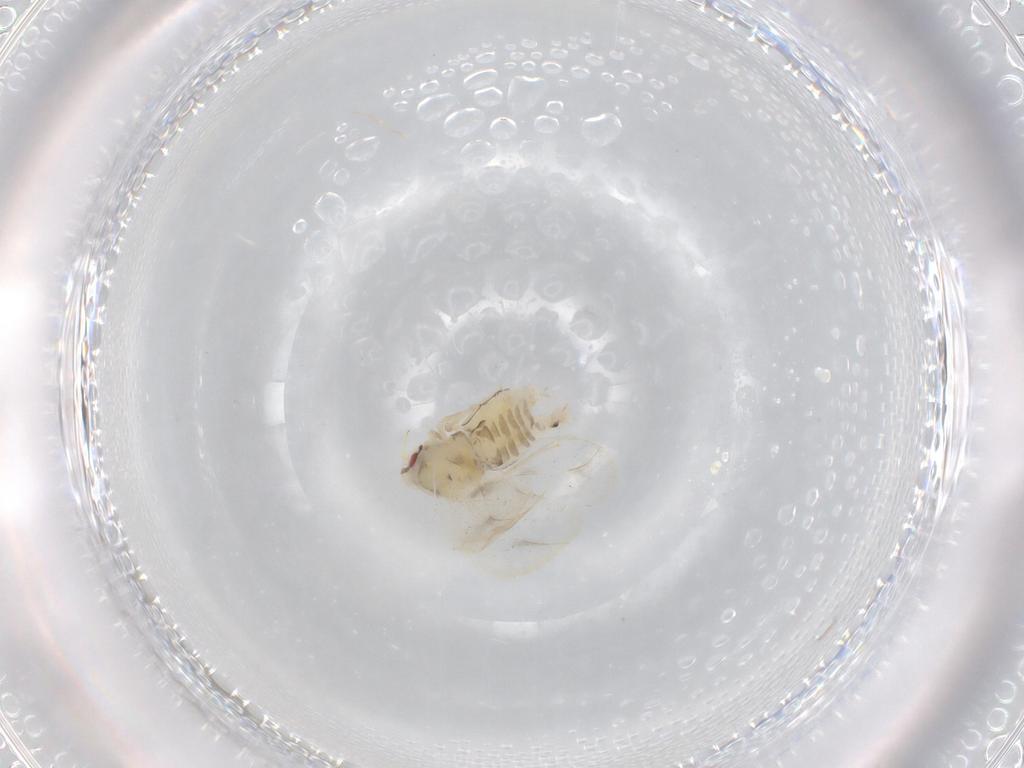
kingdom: Animalia
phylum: Arthropoda
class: Insecta
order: Hemiptera
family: Aleyrodidae
